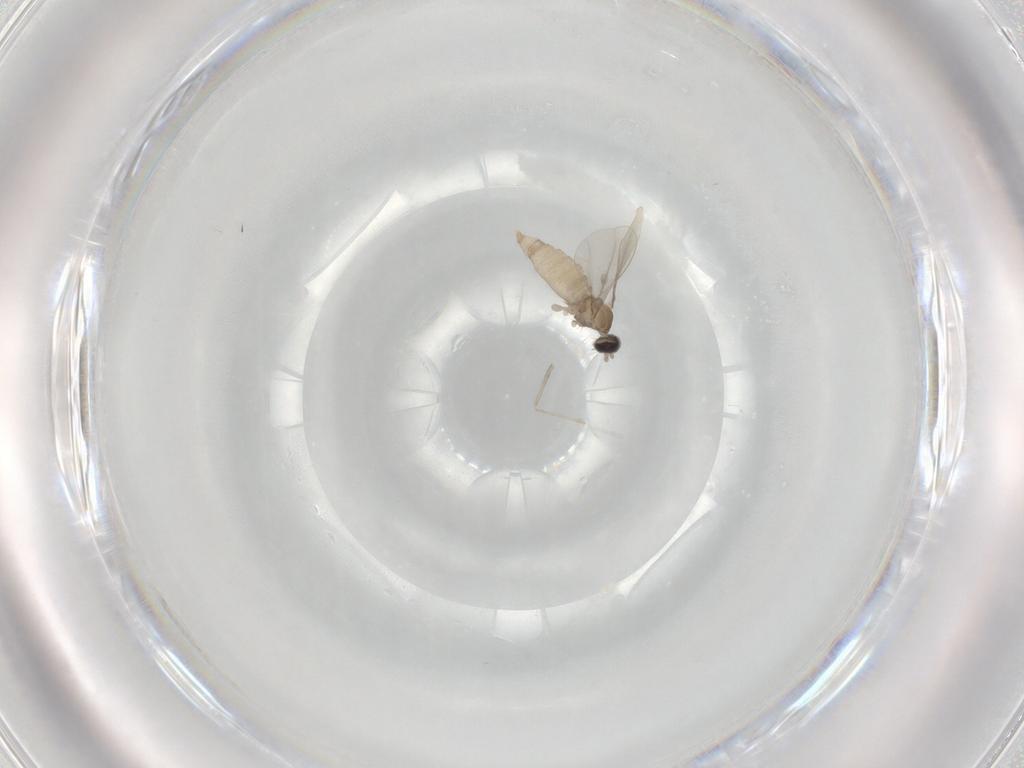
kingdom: Animalia
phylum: Arthropoda
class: Insecta
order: Diptera
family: Cecidomyiidae
